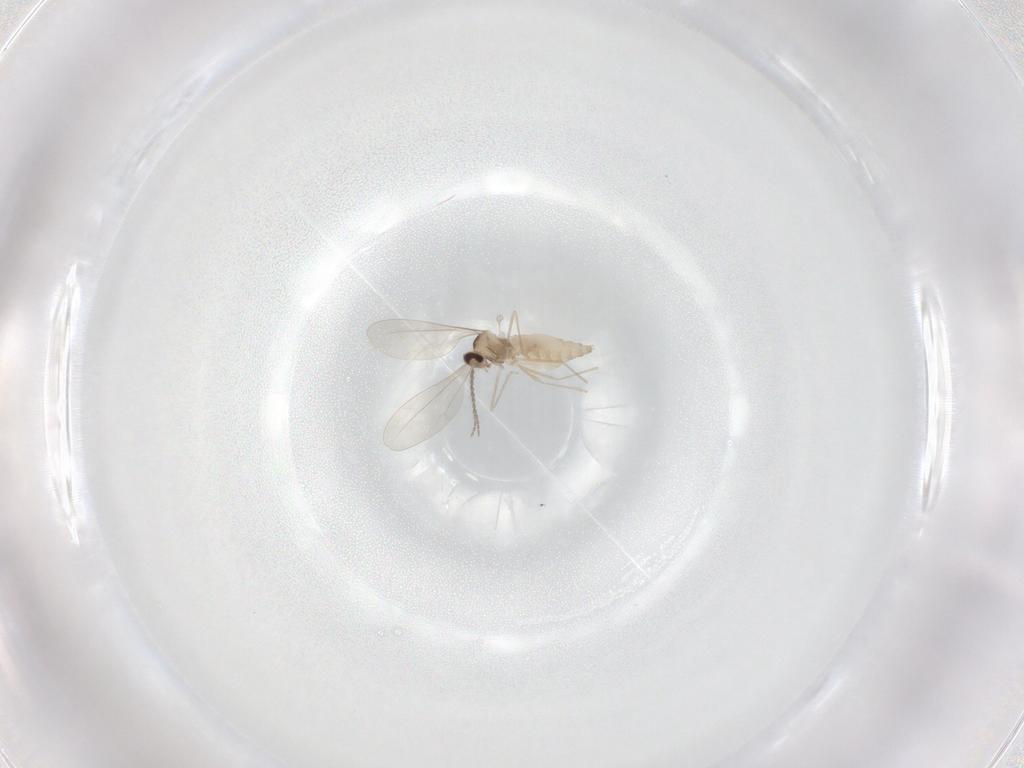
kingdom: Animalia
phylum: Arthropoda
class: Insecta
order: Diptera
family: Cecidomyiidae
